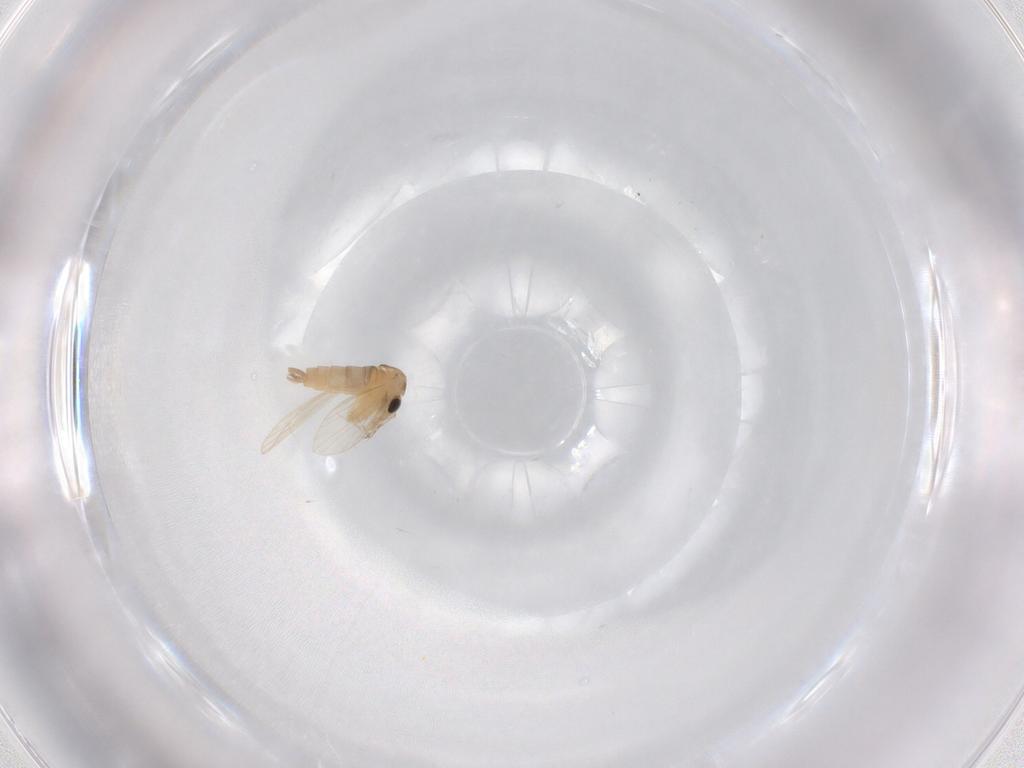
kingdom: Animalia
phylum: Arthropoda
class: Insecta
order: Diptera
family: Psychodidae
